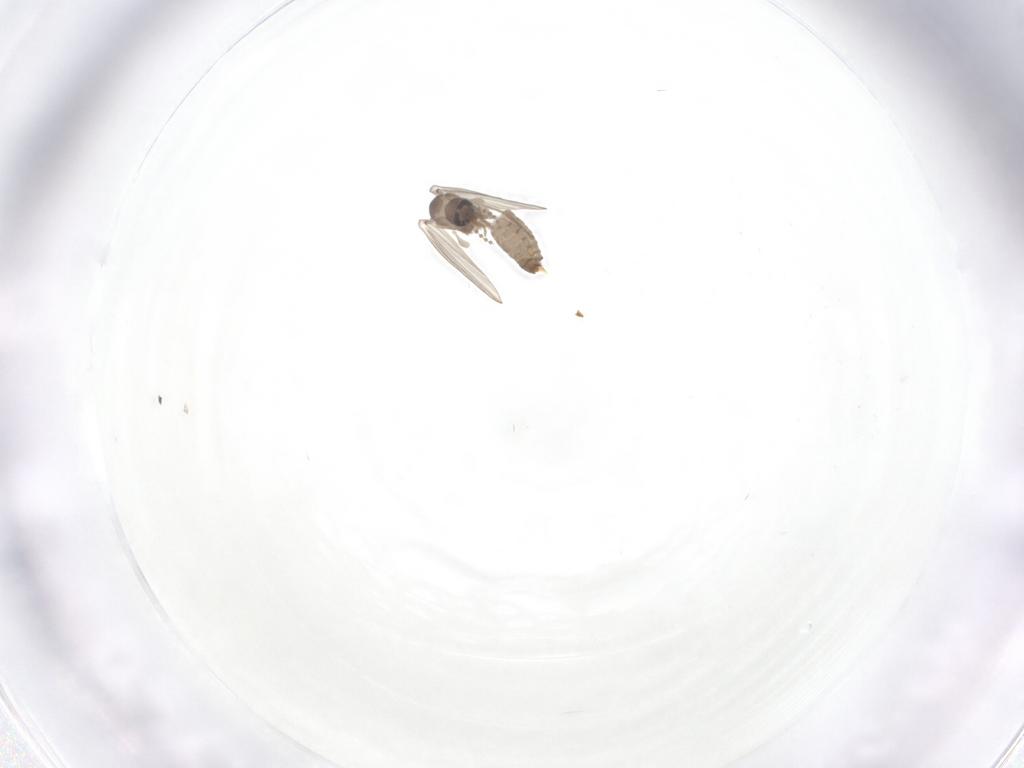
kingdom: Animalia
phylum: Arthropoda
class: Insecta
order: Diptera
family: Psychodidae
